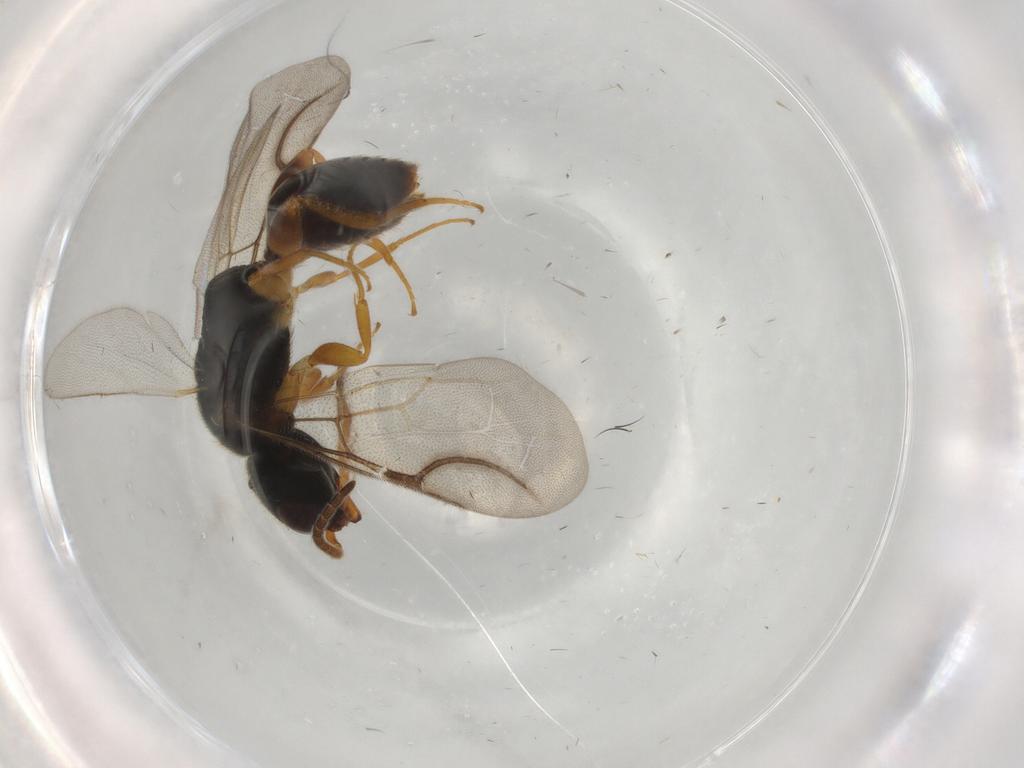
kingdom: Animalia
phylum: Arthropoda
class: Insecta
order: Hymenoptera
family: Bethylidae
